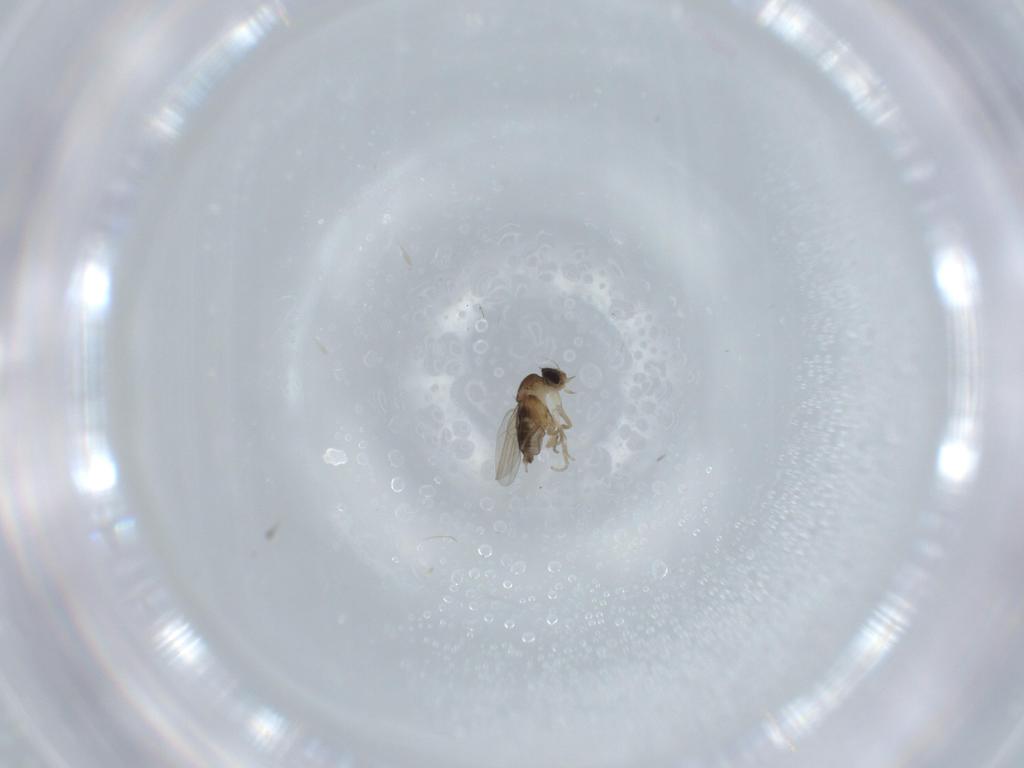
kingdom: Animalia
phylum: Arthropoda
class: Insecta
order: Diptera
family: Phoridae
